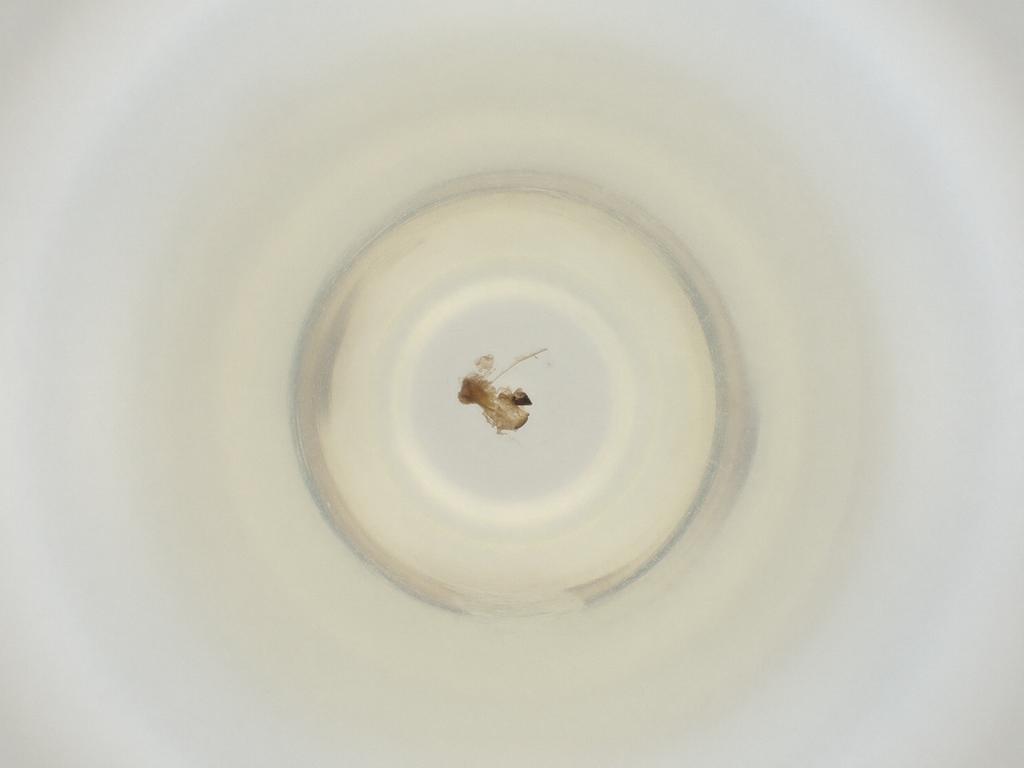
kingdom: Animalia
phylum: Arthropoda
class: Insecta
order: Diptera
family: Cecidomyiidae
